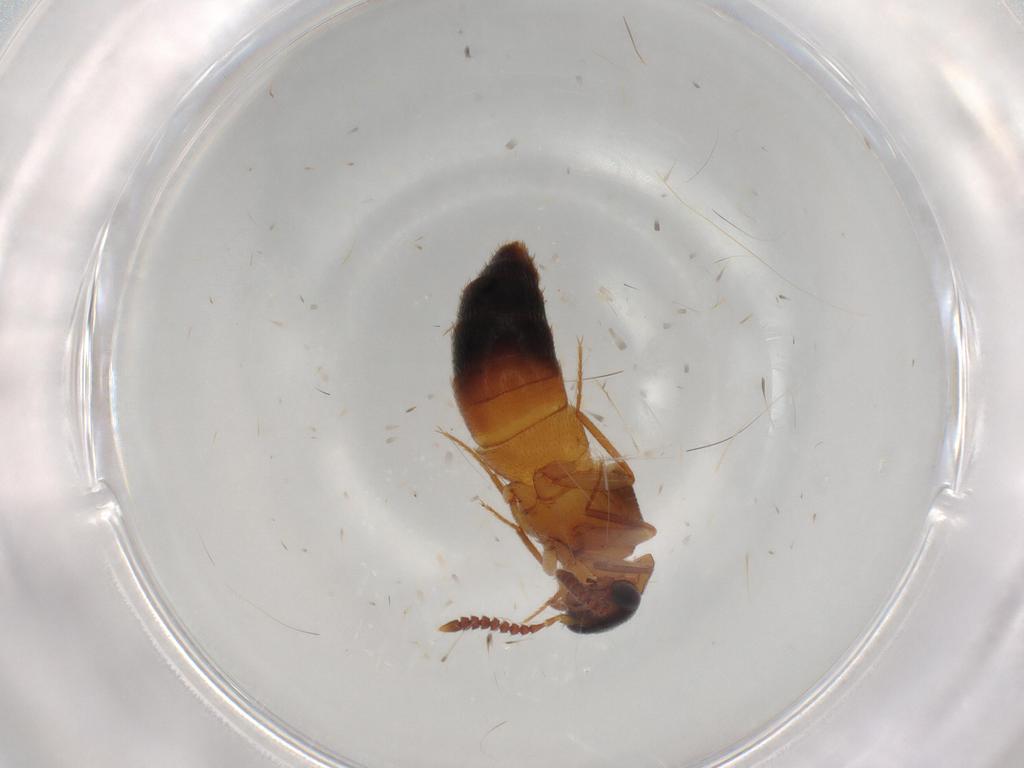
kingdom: Animalia
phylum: Arthropoda
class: Insecta
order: Coleoptera
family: Staphylinidae
